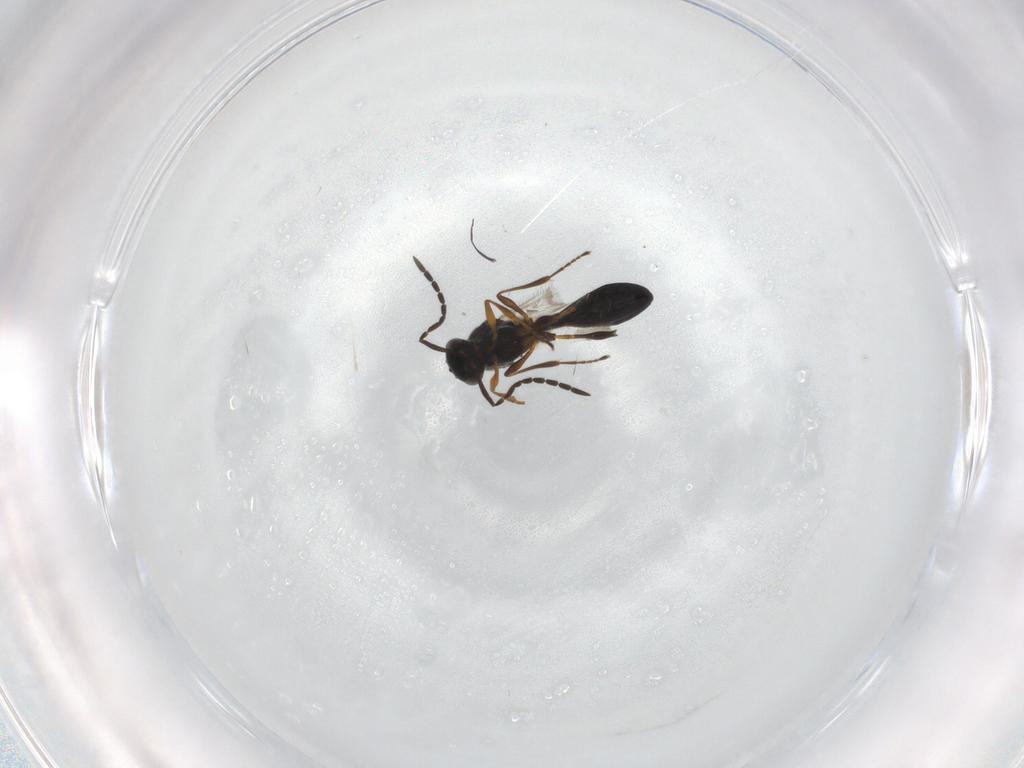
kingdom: Animalia
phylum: Arthropoda
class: Insecta
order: Hymenoptera
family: Platygastridae
